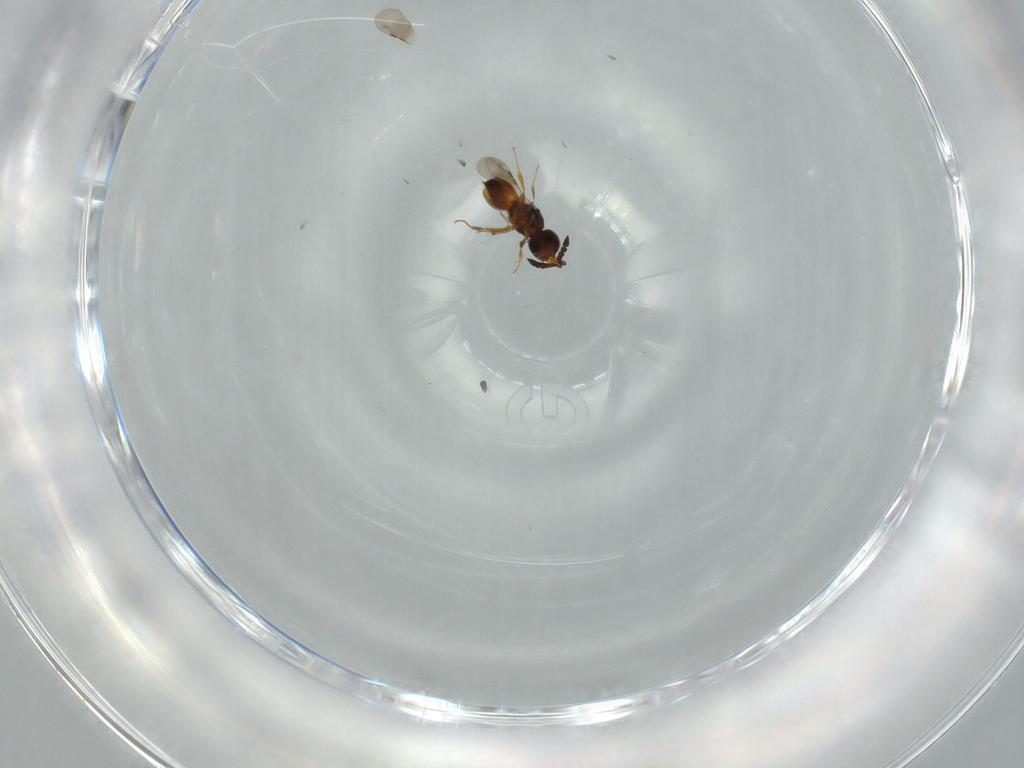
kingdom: Animalia
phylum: Arthropoda
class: Insecta
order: Hymenoptera
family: Ceraphronidae
